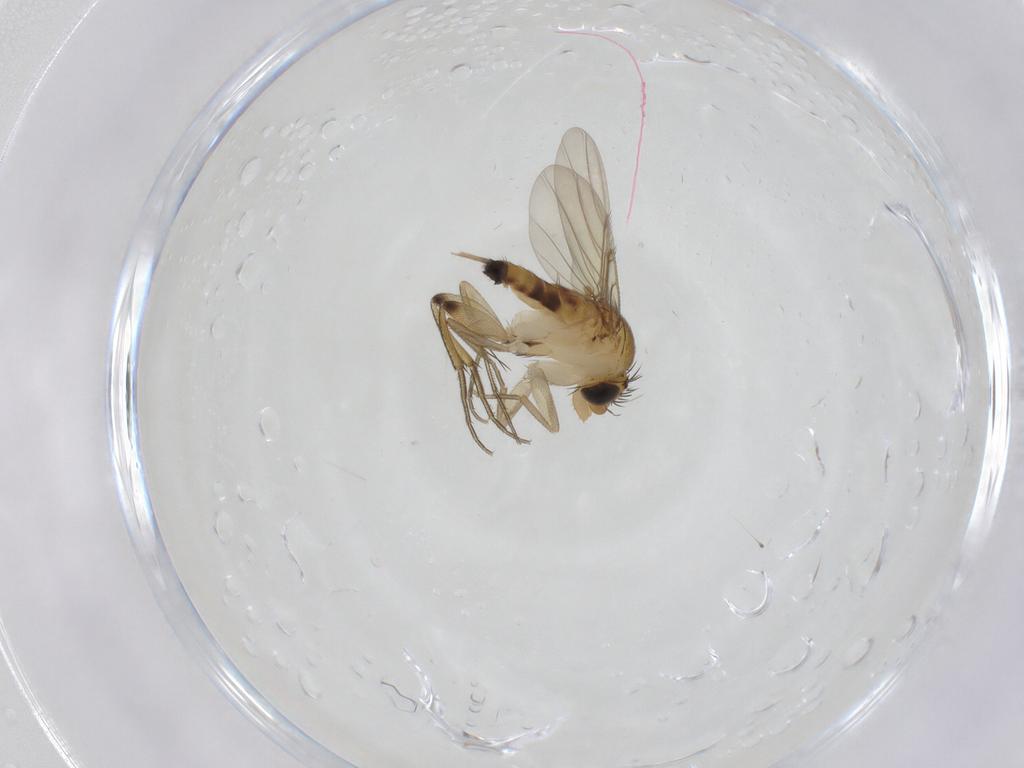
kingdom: Animalia
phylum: Arthropoda
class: Insecta
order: Diptera
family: Phoridae
